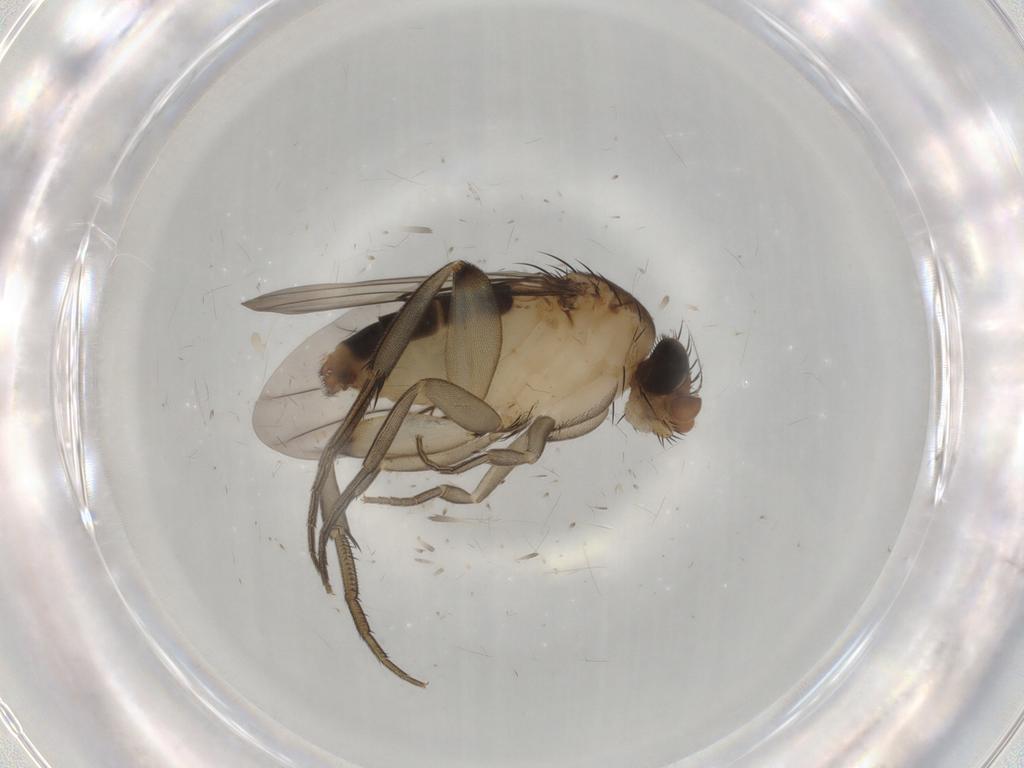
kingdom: Animalia
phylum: Arthropoda
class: Insecta
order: Diptera
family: Phoridae
